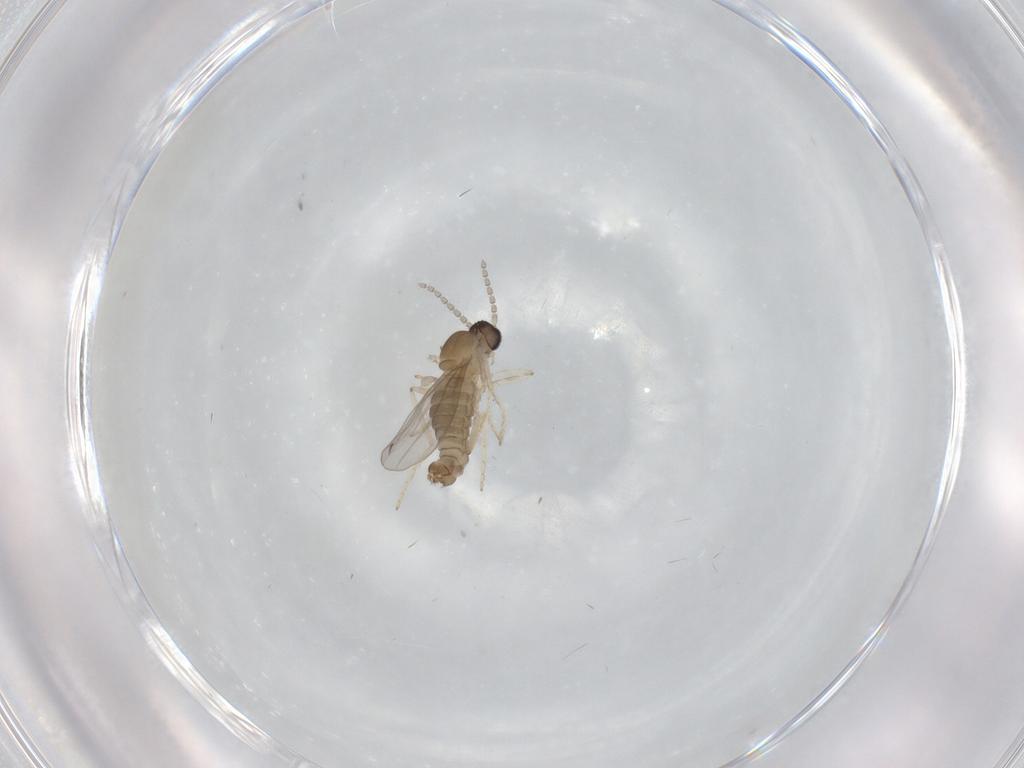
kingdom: Animalia
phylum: Arthropoda
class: Insecta
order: Diptera
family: Cecidomyiidae
